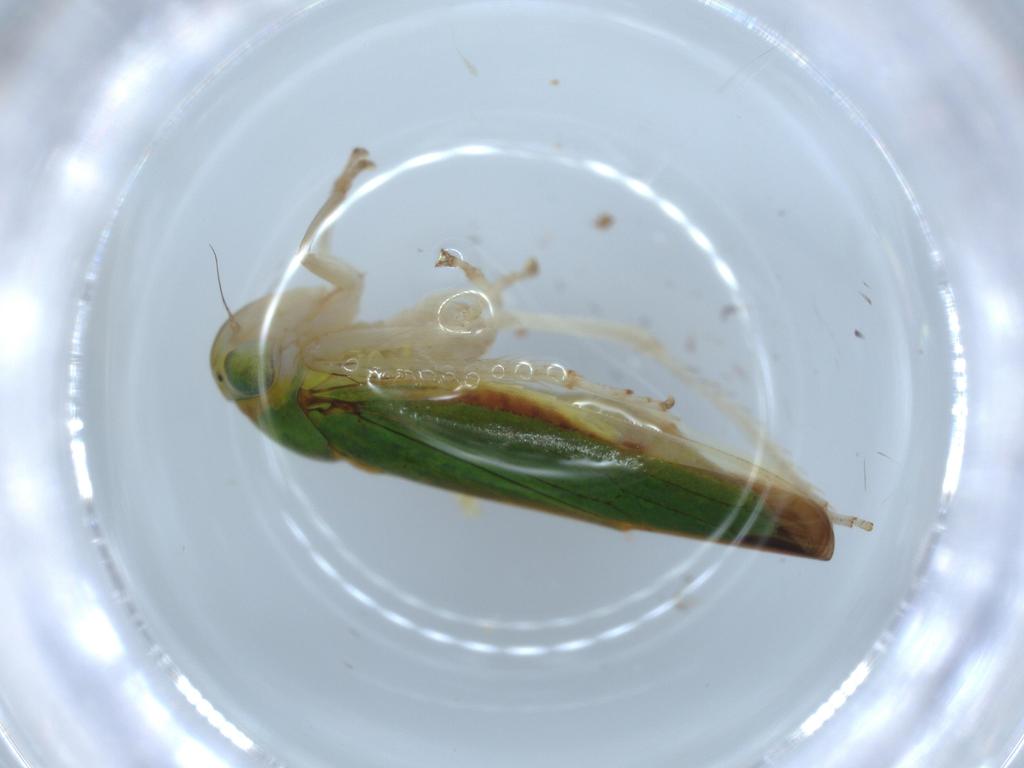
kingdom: Animalia
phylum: Arthropoda
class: Insecta
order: Hemiptera
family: Cicadellidae
